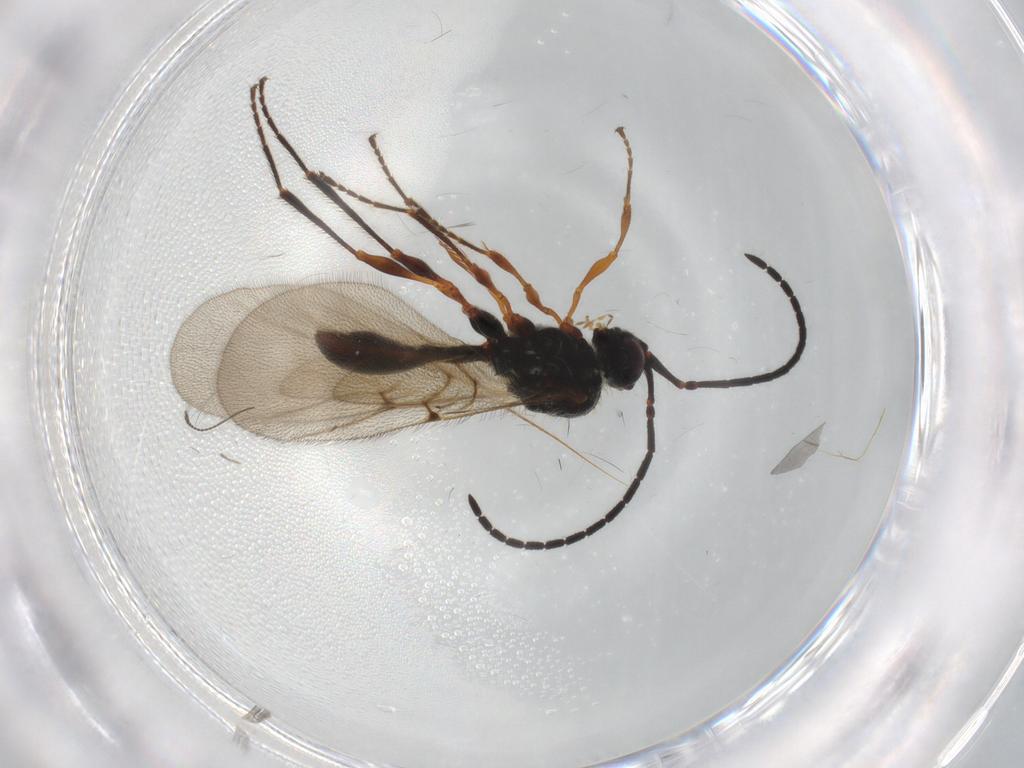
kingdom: Animalia
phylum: Arthropoda
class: Insecta
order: Hymenoptera
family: Diapriidae
